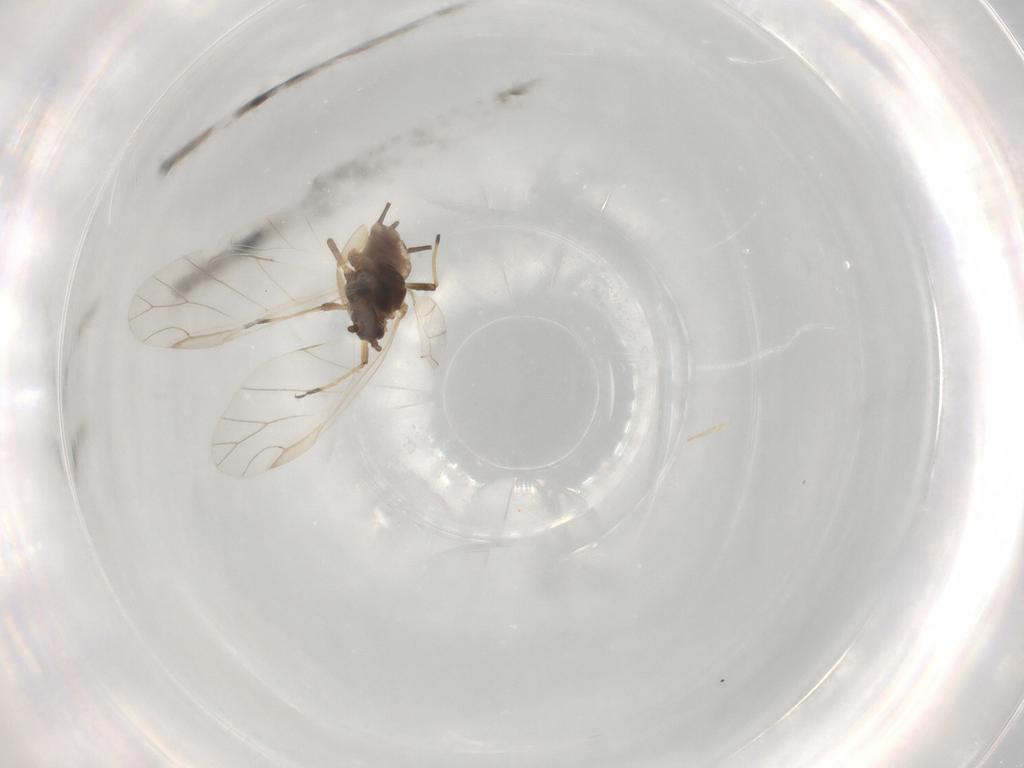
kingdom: Animalia
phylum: Arthropoda
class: Insecta
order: Hemiptera
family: Aphididae
